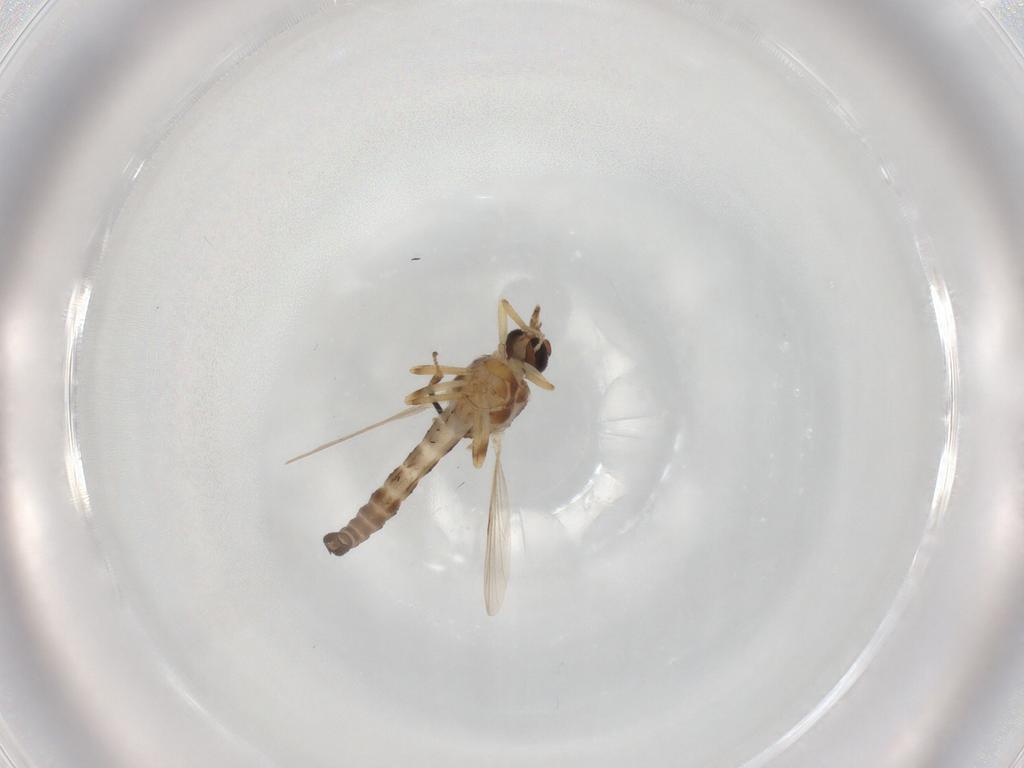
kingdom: Animalia
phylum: Arthropoda
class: Insecta
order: Diptera
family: Ceratopogonidae
